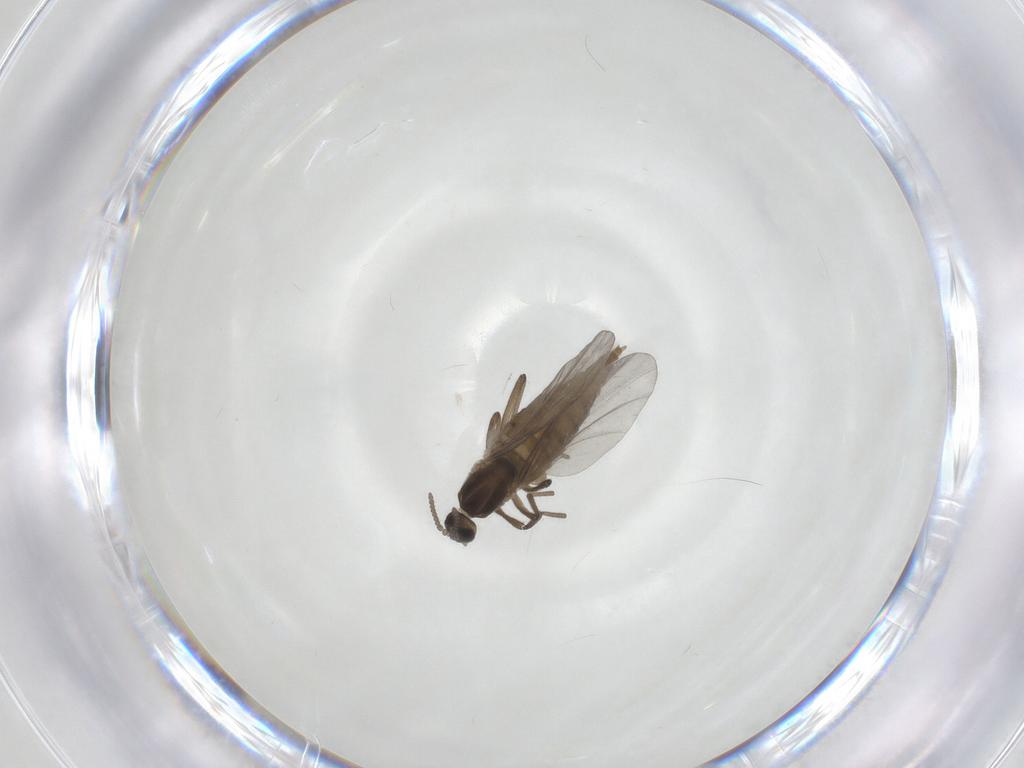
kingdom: Animalia
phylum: Arthropoda
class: Insecta
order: Diptera
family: Cecidomyiidae
